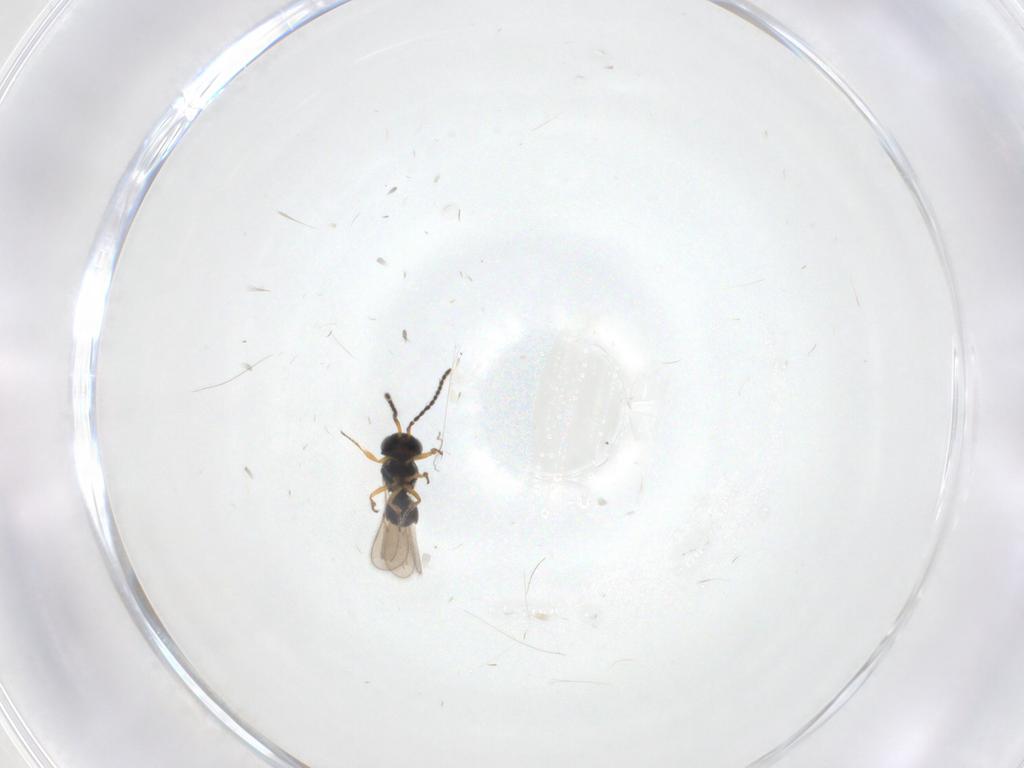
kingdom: Animalia
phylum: Arthropoda
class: Insecta
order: Hymenoptera
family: Scelionidae
